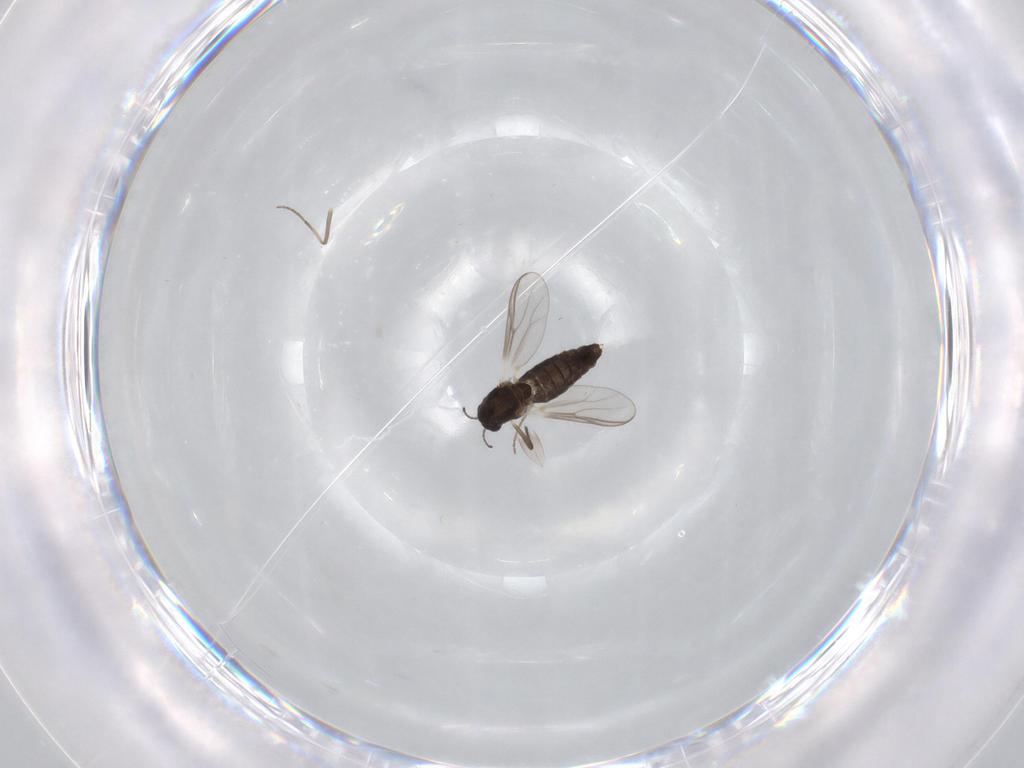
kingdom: Animalia
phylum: Arthropoda
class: Insecta
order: Diptera
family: Chironomidae
